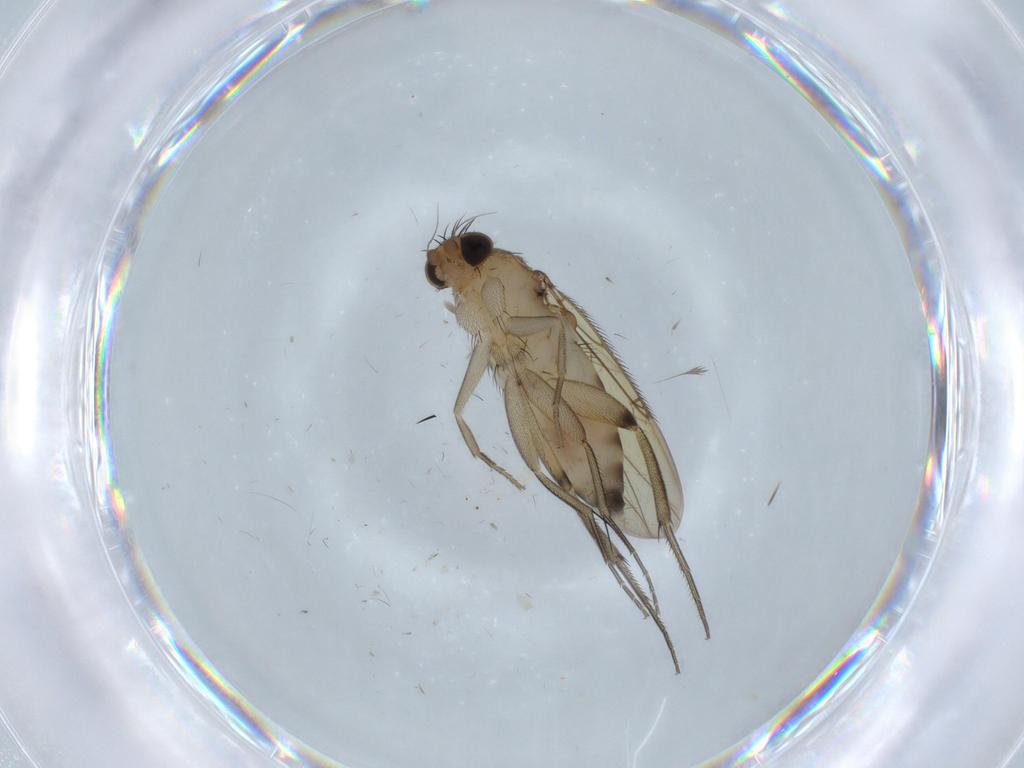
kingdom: Animalia
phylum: Arthropoda
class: Insecta
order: Diptera
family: Phoridae
